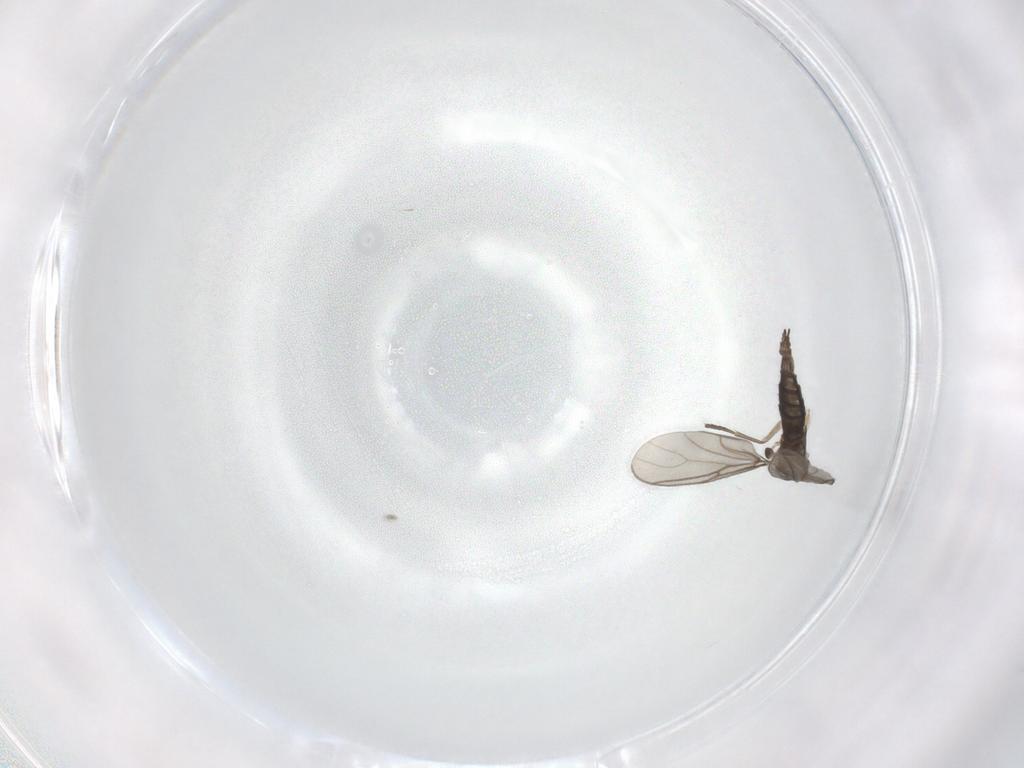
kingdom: Animalia
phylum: Arthropoda
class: Insecta
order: Diptera
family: Sciaridae
